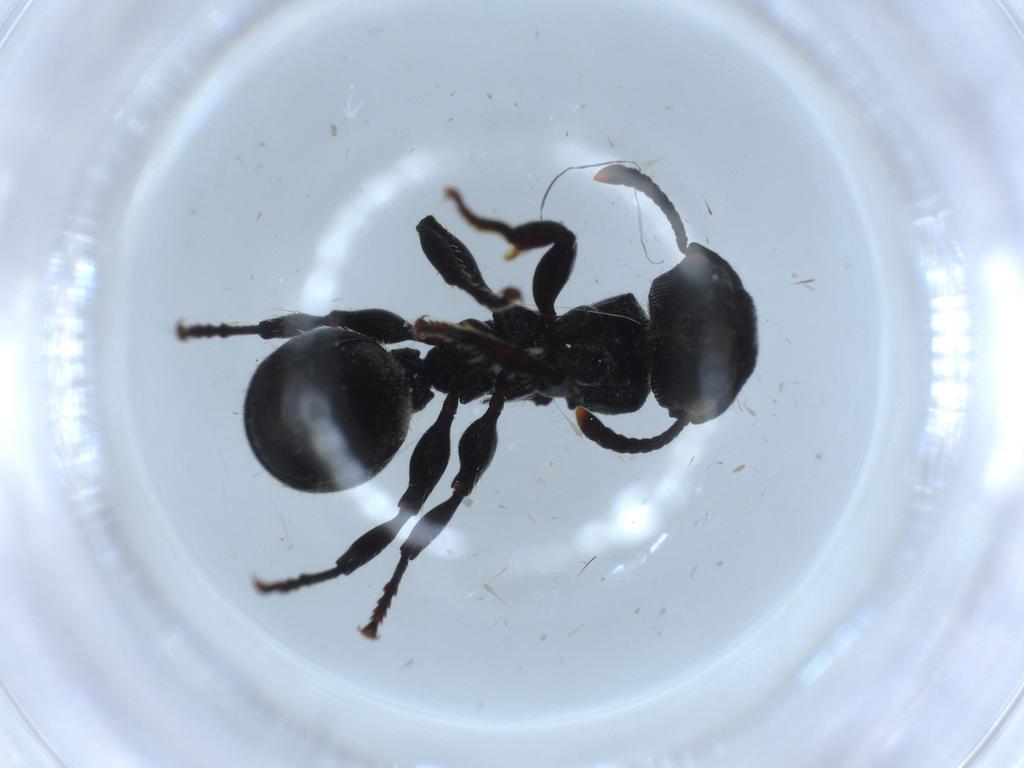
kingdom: Animalia
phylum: Arthropoda
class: Insecta
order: Hymenoptera
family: Formicidae
